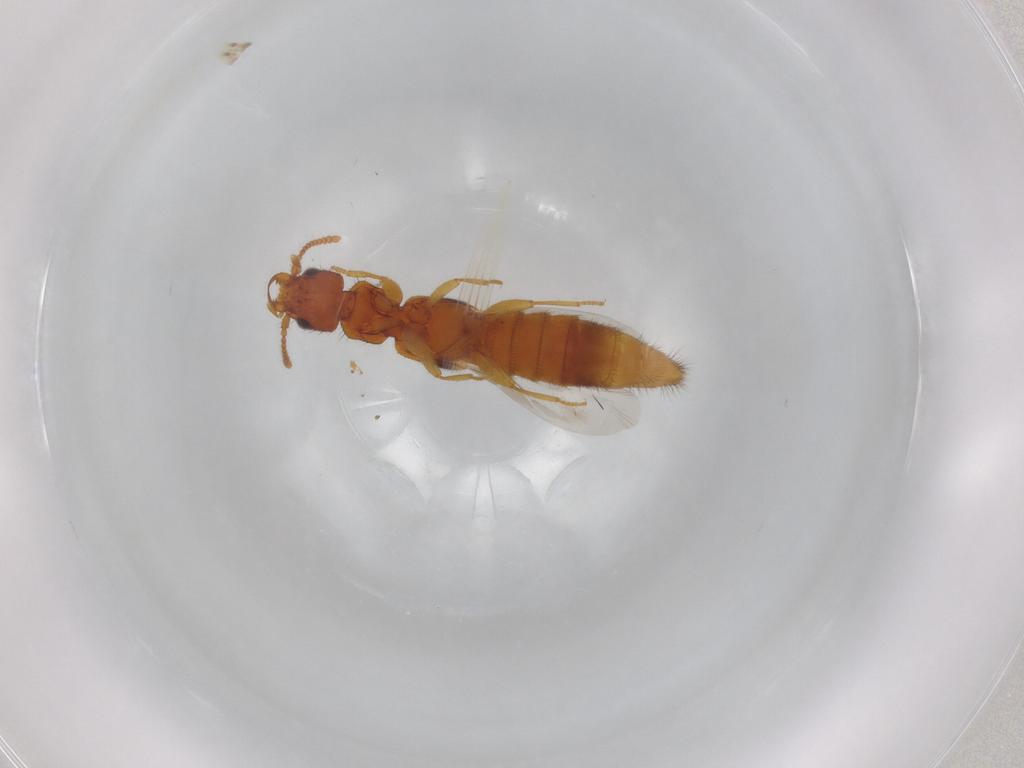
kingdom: Animalia
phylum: Arthropoda
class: Insecta
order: Coleoptera
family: Staphylinidae
